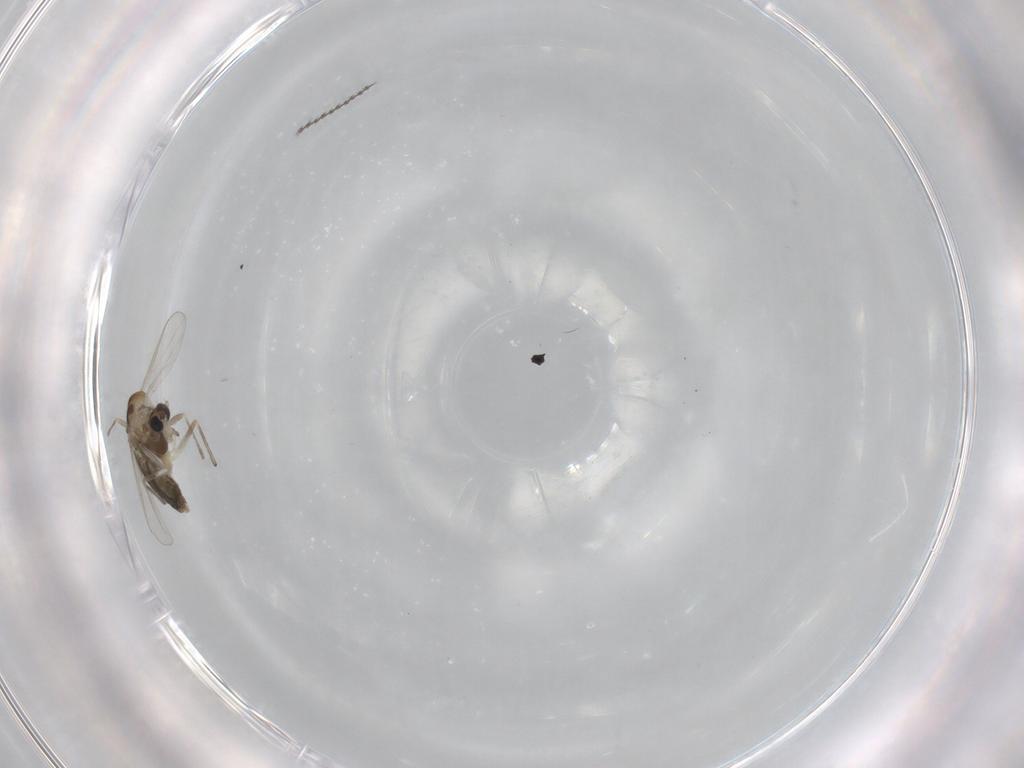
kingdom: Animalia
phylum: Arthropoda
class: Insecta
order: Diptera
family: Chironomidae
